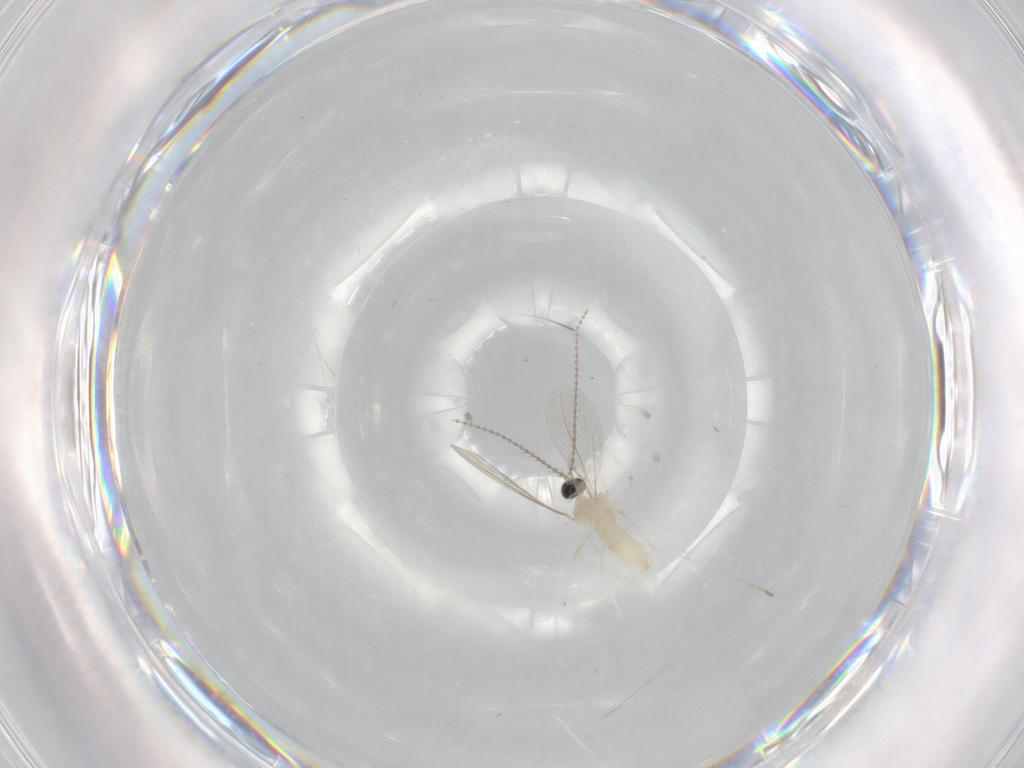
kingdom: Animalia
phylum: Arthropoda
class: Insecta
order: Diptera
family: Cecidomyiidae
